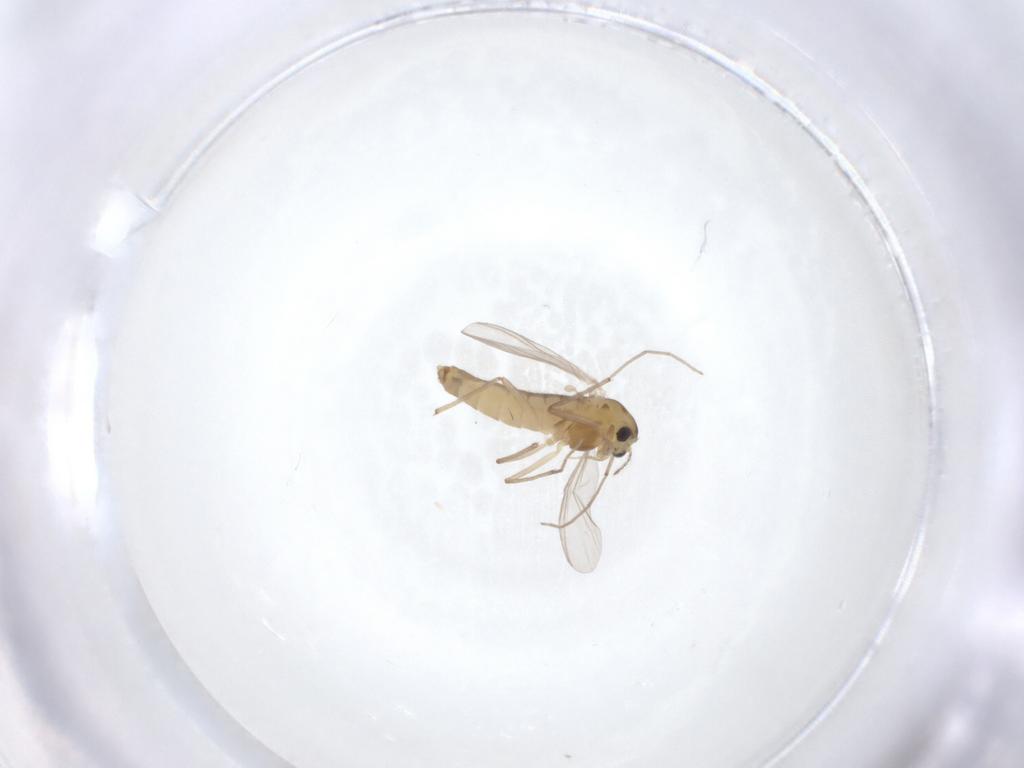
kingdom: Animalia
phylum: Arthropoda
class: Insecta
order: Diptera
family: Chironomidae
